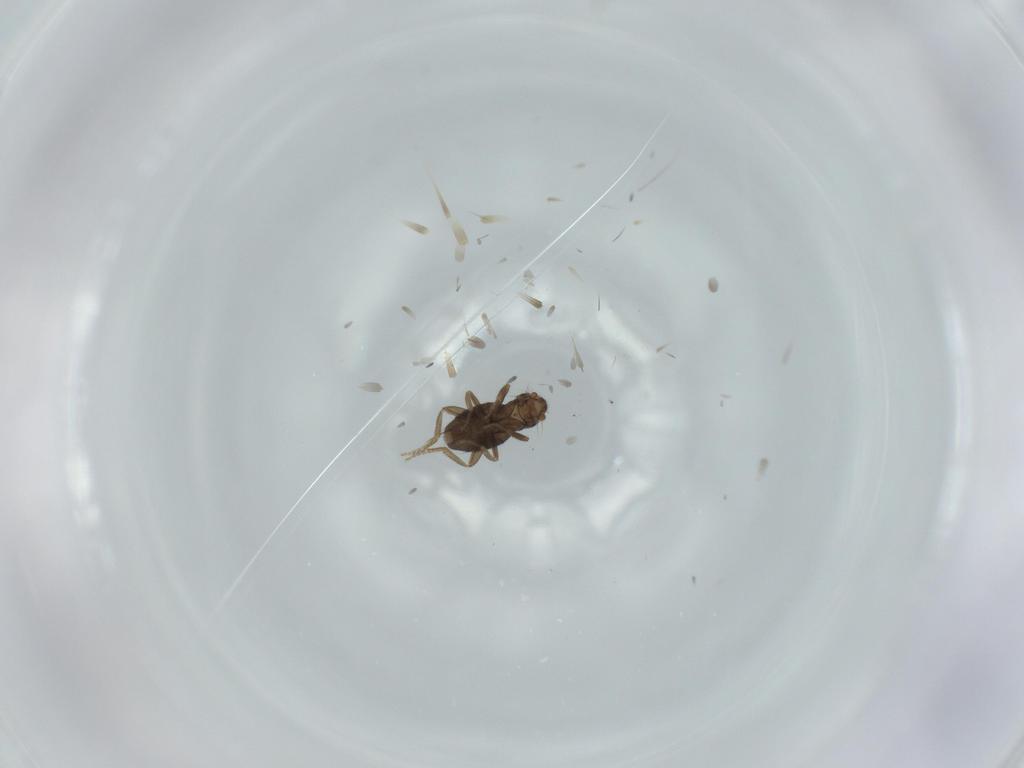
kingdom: Animalia
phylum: Arthropoda
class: Insecta
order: Diptera
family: Phoridae
